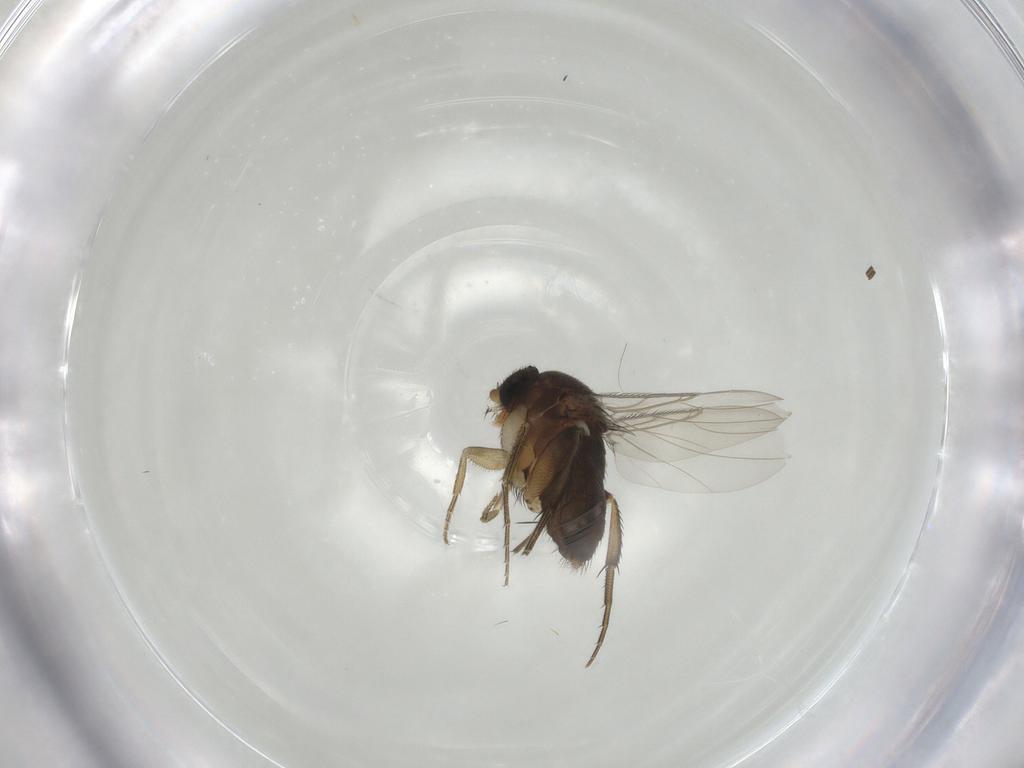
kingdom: Animalia
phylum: Arthropoda
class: Insecta
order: Diptera
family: Phoridae
